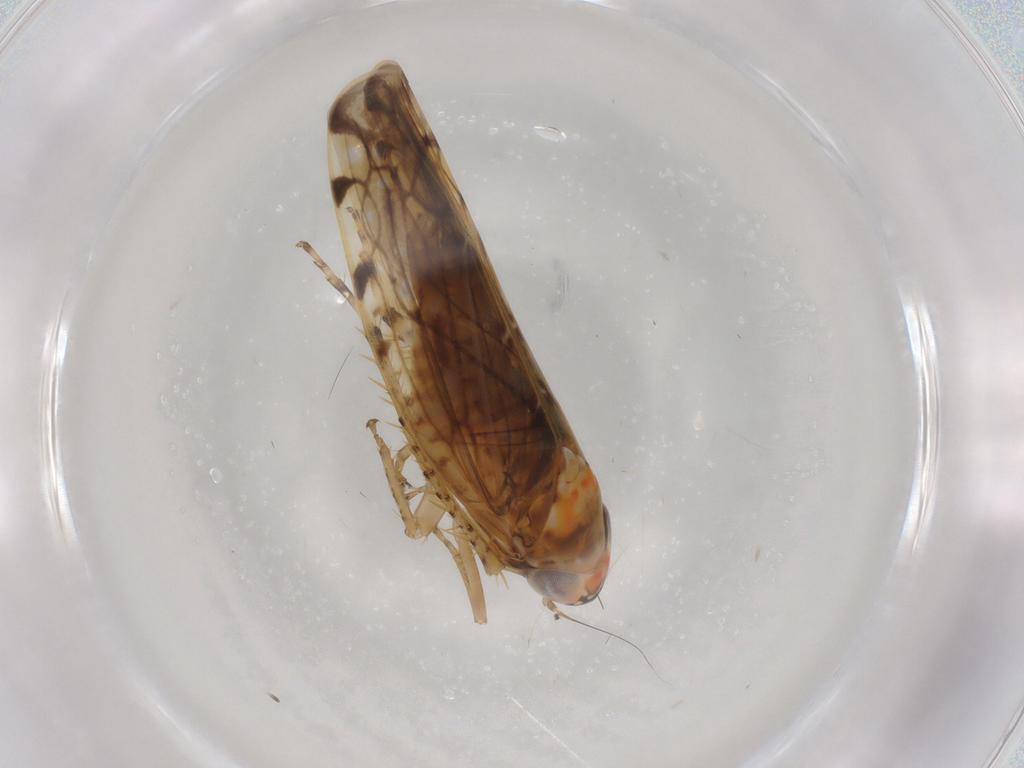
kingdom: Animalia
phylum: Arthropoda
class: Insecta
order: Hemiptera
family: Cicadellidae
